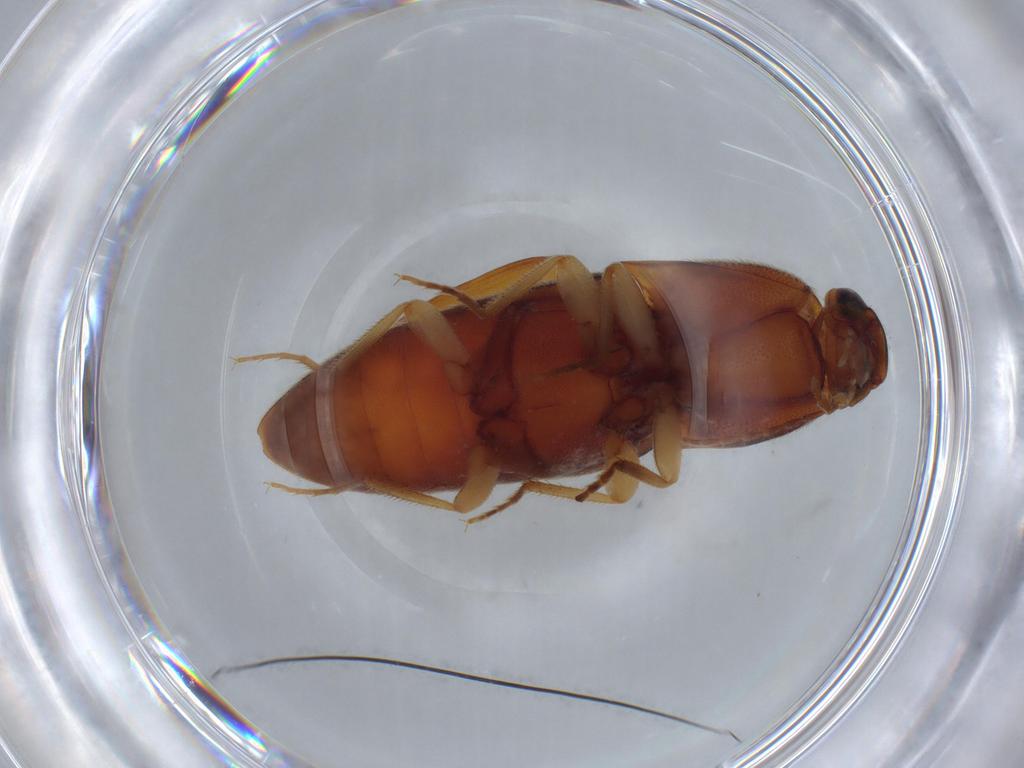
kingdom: Animalia
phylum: Arthropoda
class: Insecta
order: Coleoptera
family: Elateridae
